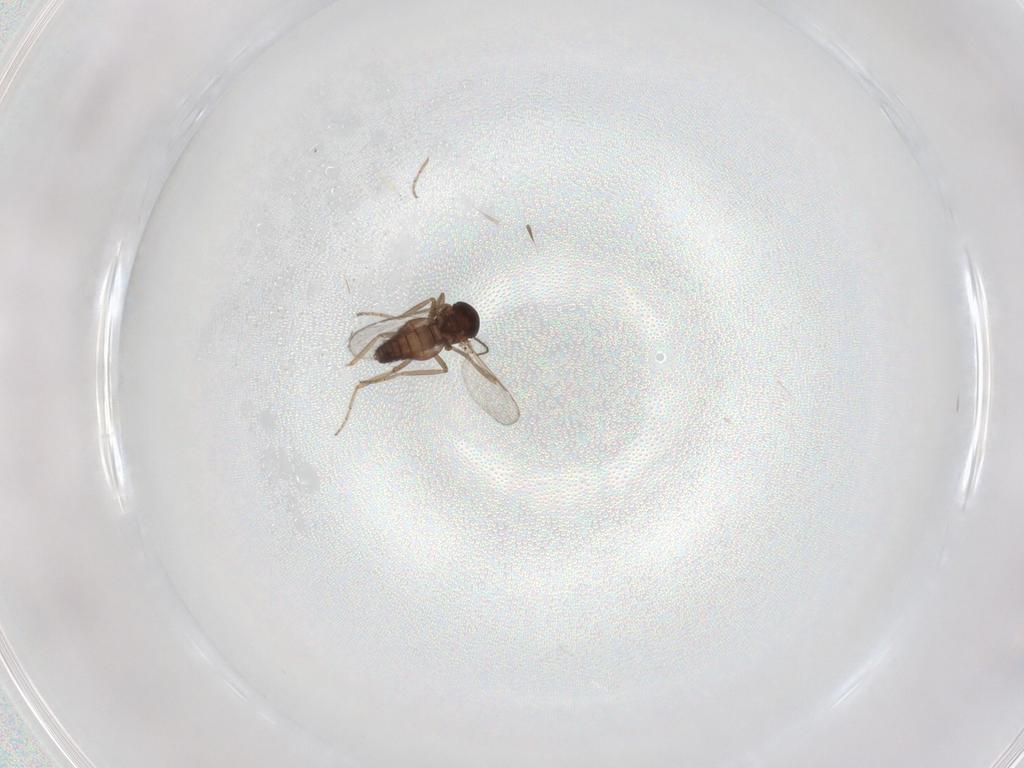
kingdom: Animalia
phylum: Arthropoda
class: Insecta
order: Diptera
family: Ceratopogonidae
